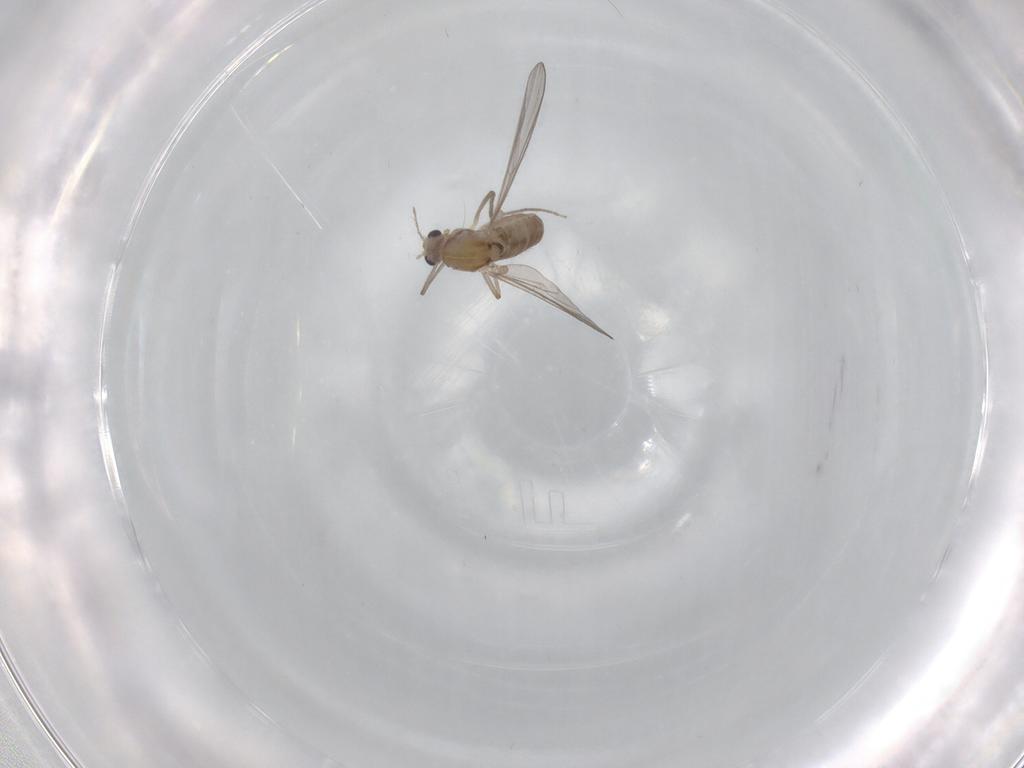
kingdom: Animalia
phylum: Arthropoda
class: Insecta
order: Diptera
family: Chironomidae
